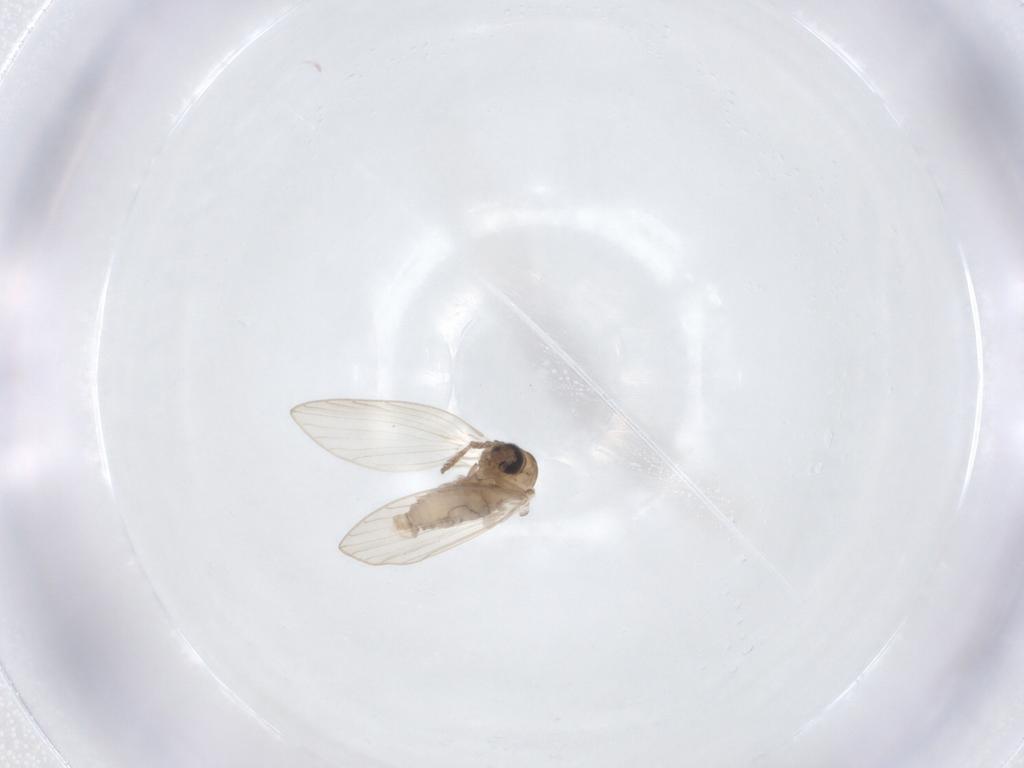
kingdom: Animalia
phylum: Arthropoda
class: Insecta
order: Diptera
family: Psychodidae
